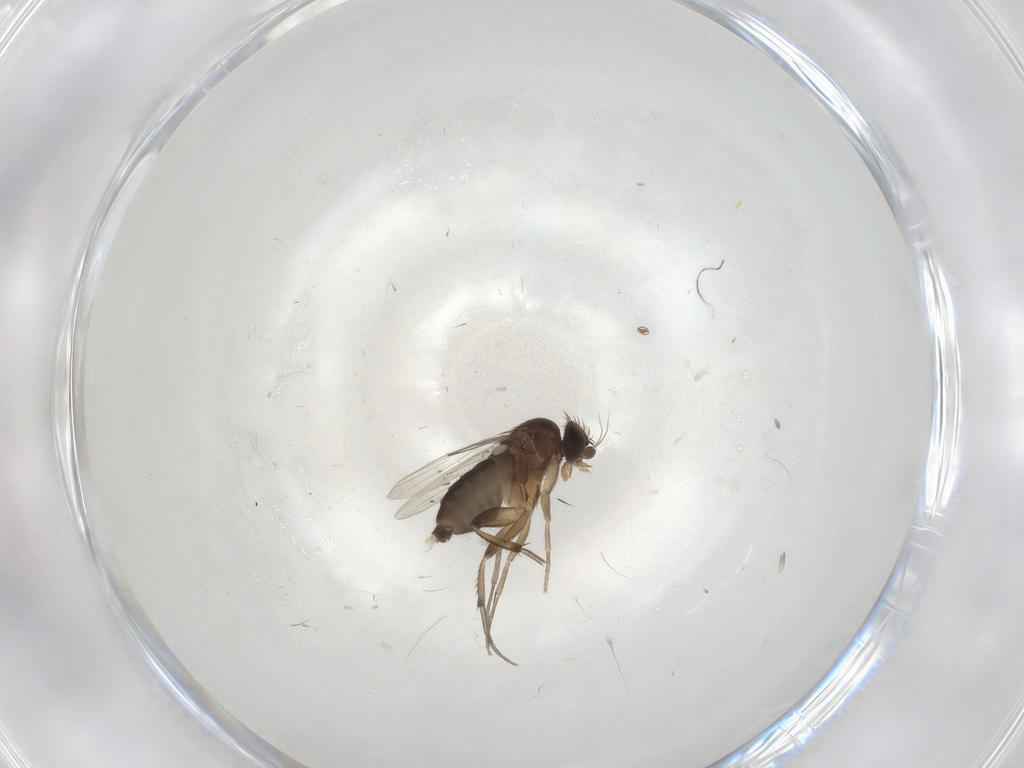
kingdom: Animalia
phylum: Arthropoda
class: Insecta
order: Diptera
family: Phoridae
